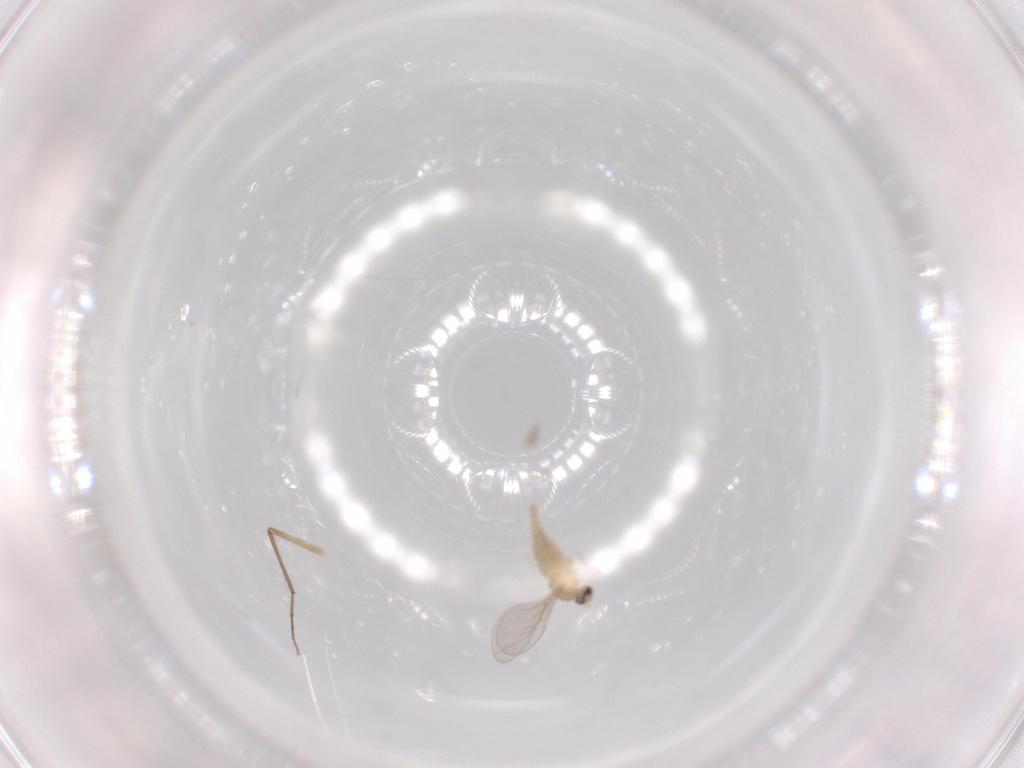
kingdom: Animalia
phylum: Arthropoda
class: Insecta
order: Diptera
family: Cecidomyiidae
